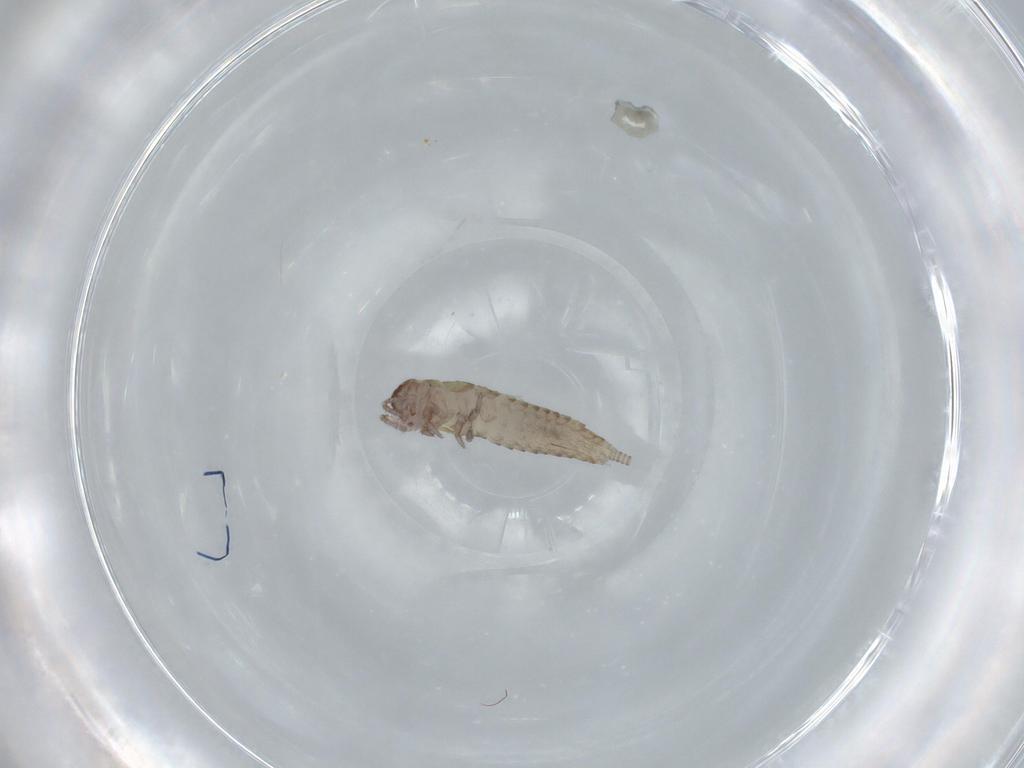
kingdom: Animalia
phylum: Arthropoda
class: Insecta
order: Archaeognatha
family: Machilidae
